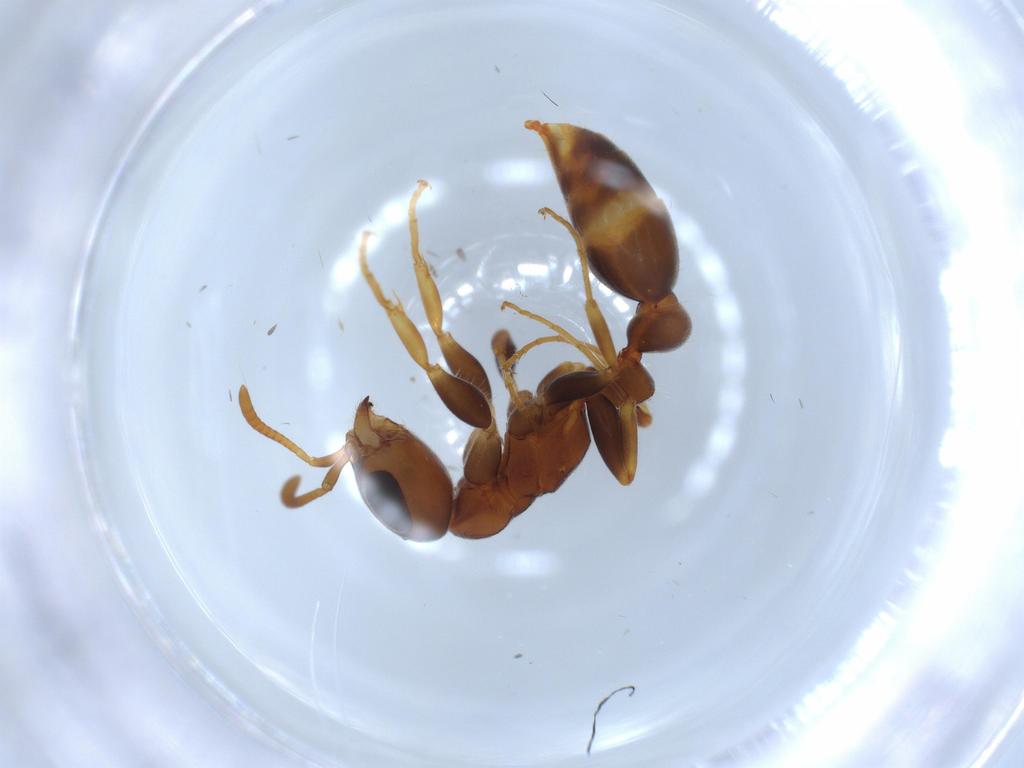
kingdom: Animalia
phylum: Arthropoda
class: Insecta
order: Hymenoptera
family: Formicidae
